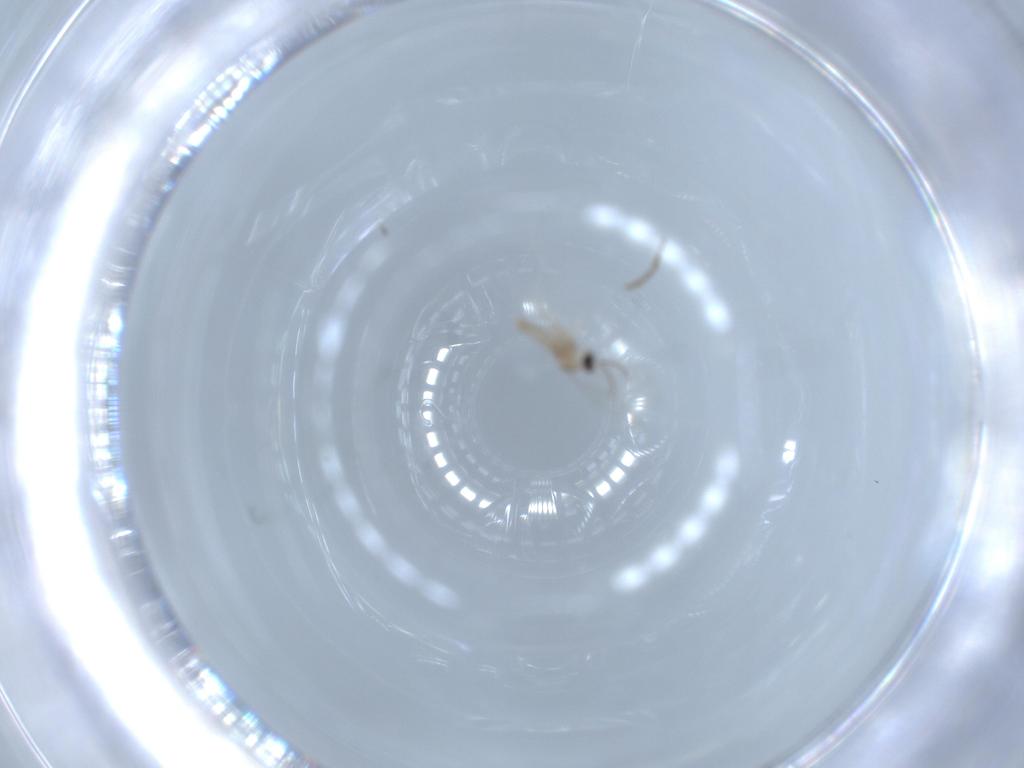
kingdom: Animalia
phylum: Arthropoda
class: Insecta
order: Diptera
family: Cecidomyiidae
